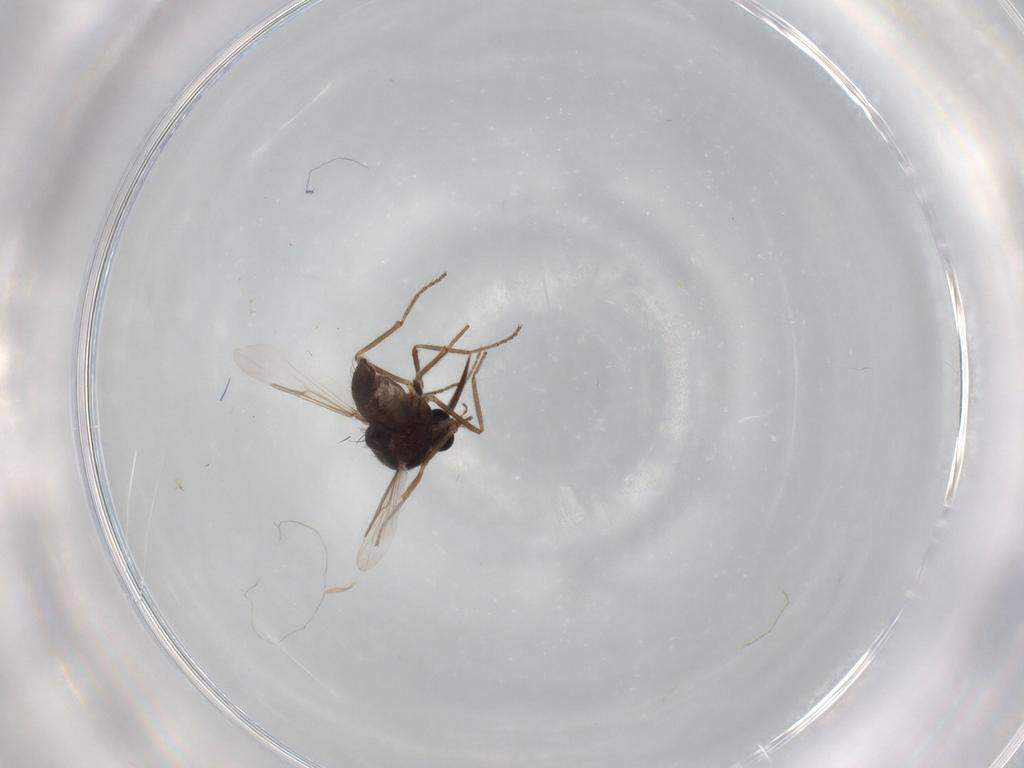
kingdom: Animalia
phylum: Arthropoda
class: Insecta
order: Diptera
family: Ceratopogonidae
